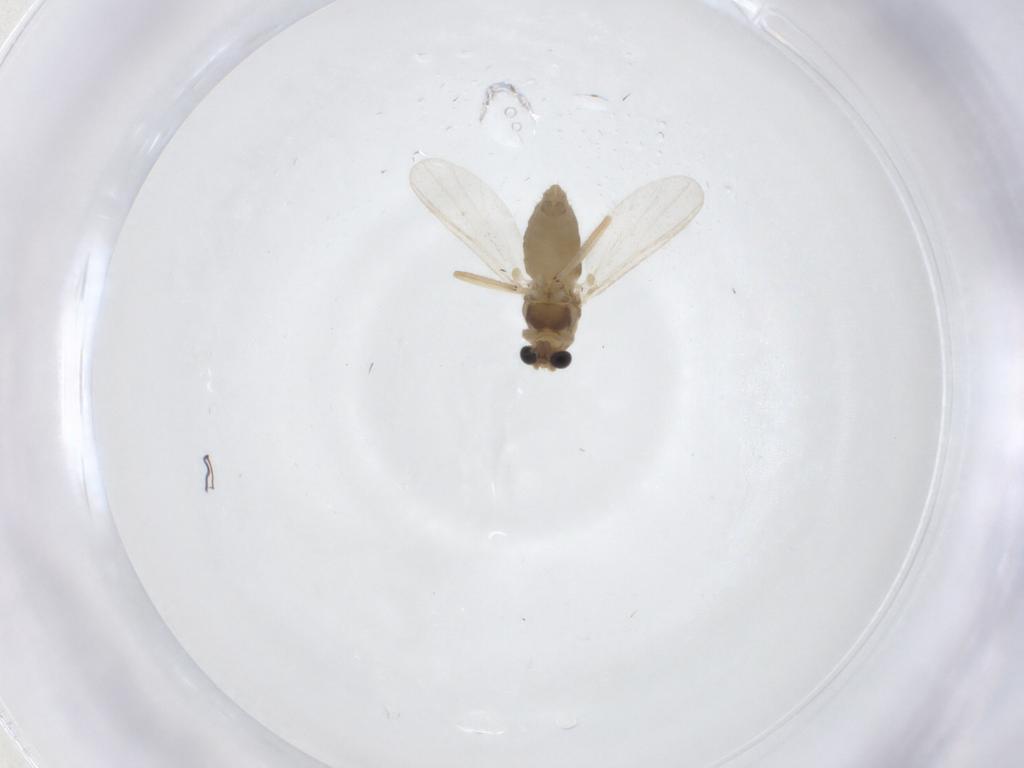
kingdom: Animalia
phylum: Arthropoda
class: Insecta
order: Diptera
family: Chironomidae
